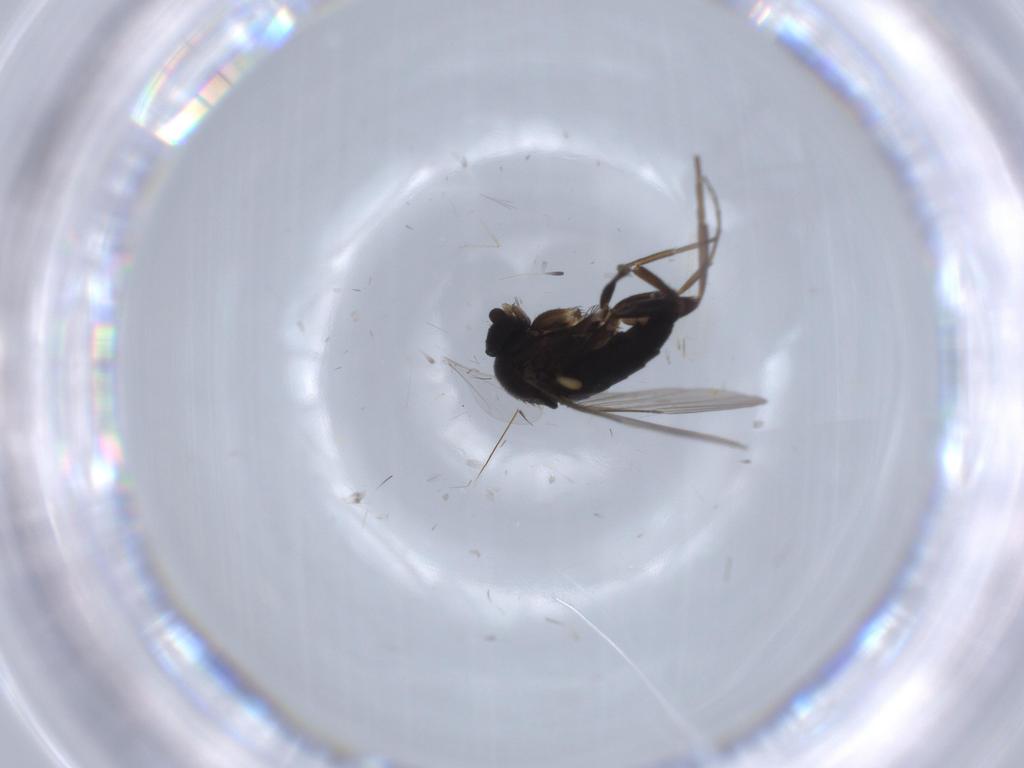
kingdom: Animalia
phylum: Arthropoda
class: Insecta
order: Diptera
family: Phoridae
